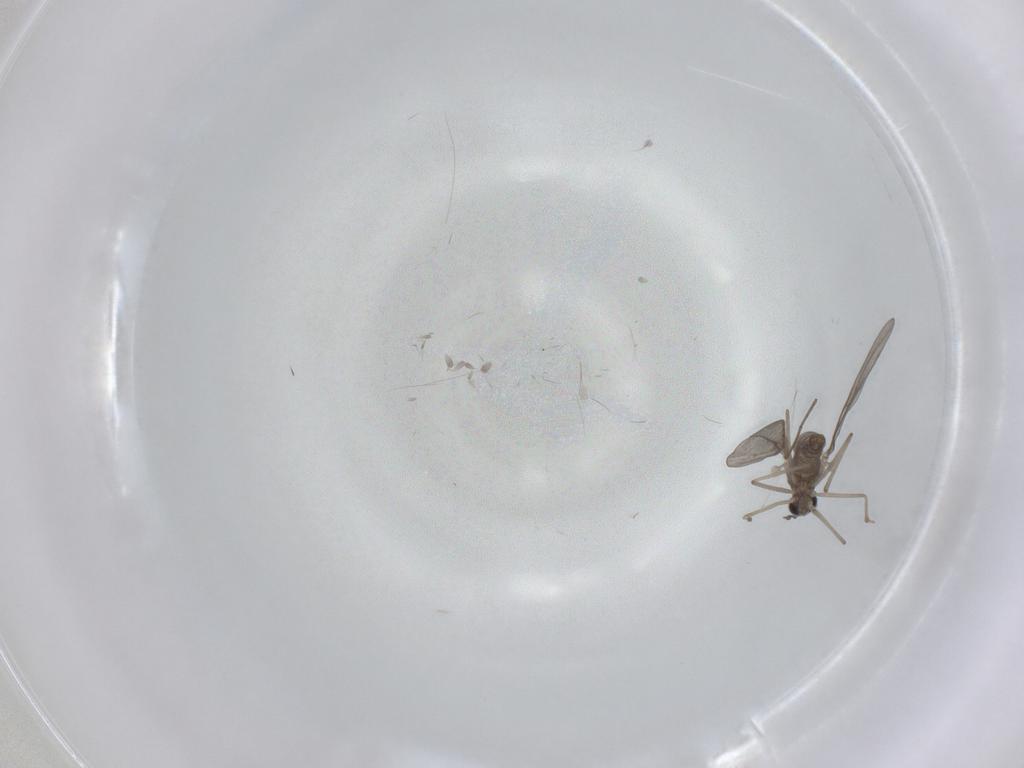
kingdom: Animalia
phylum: Arthropoda
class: Insecta
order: Diptera
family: Cecidomyiidae
